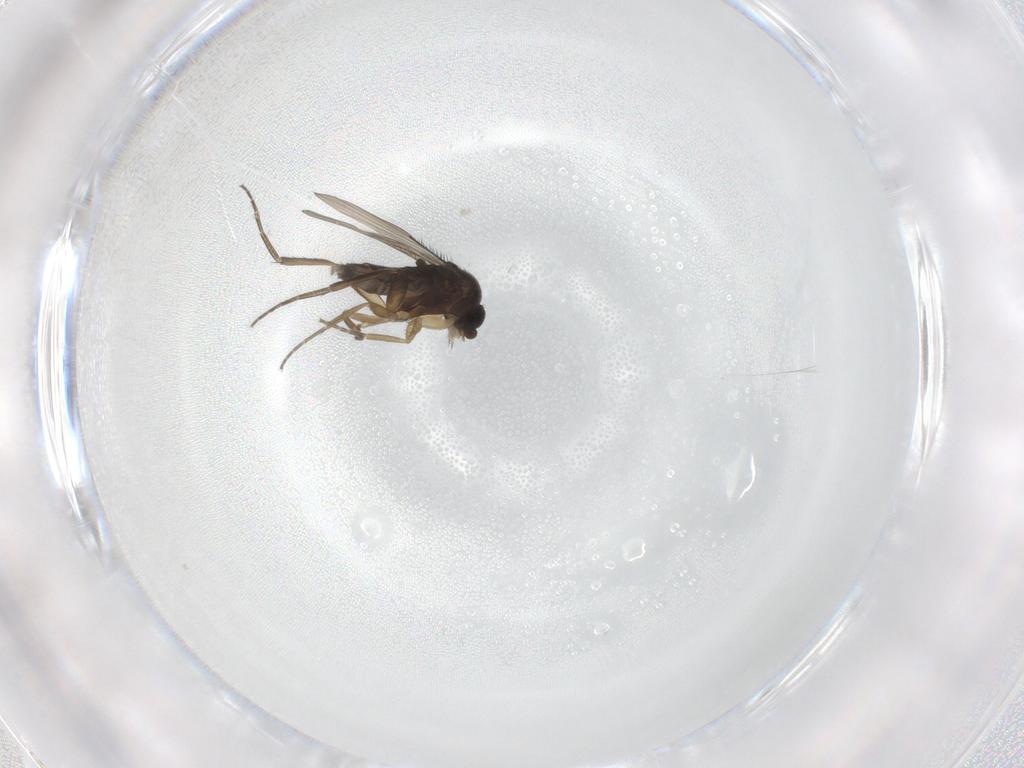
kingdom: Animalia
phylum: Arthropoda
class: Insecta
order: Diptera
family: Phoridae
